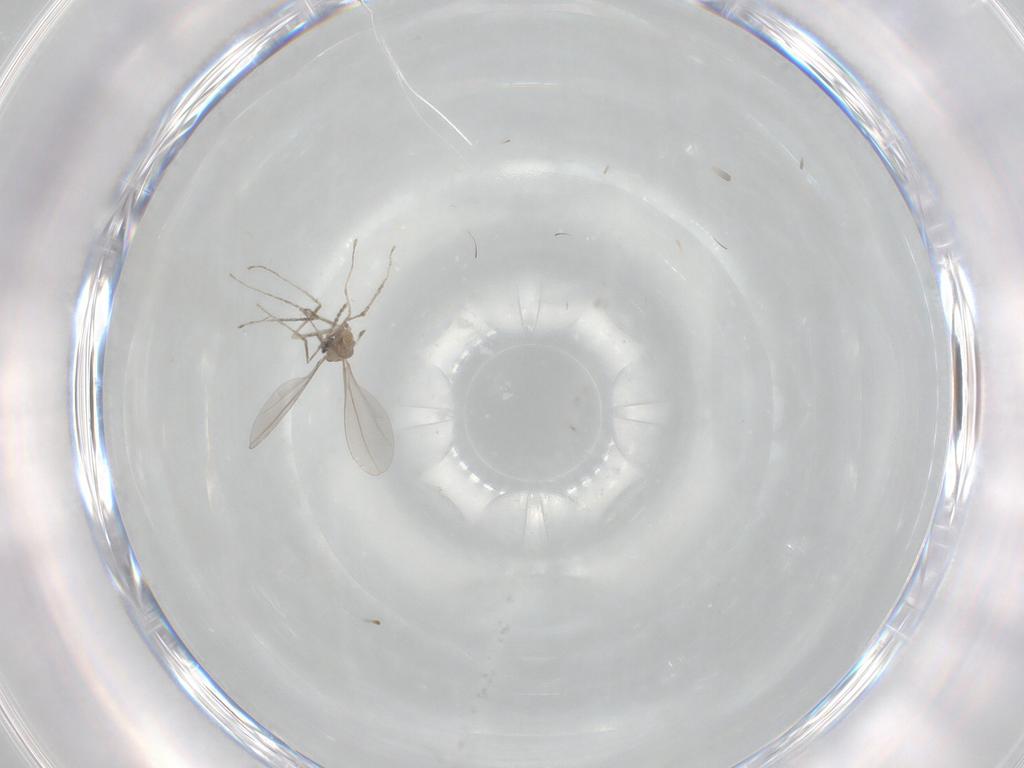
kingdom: Animalia
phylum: Arthropoda
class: Insecta
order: Diptera
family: Cecidomyiidae
